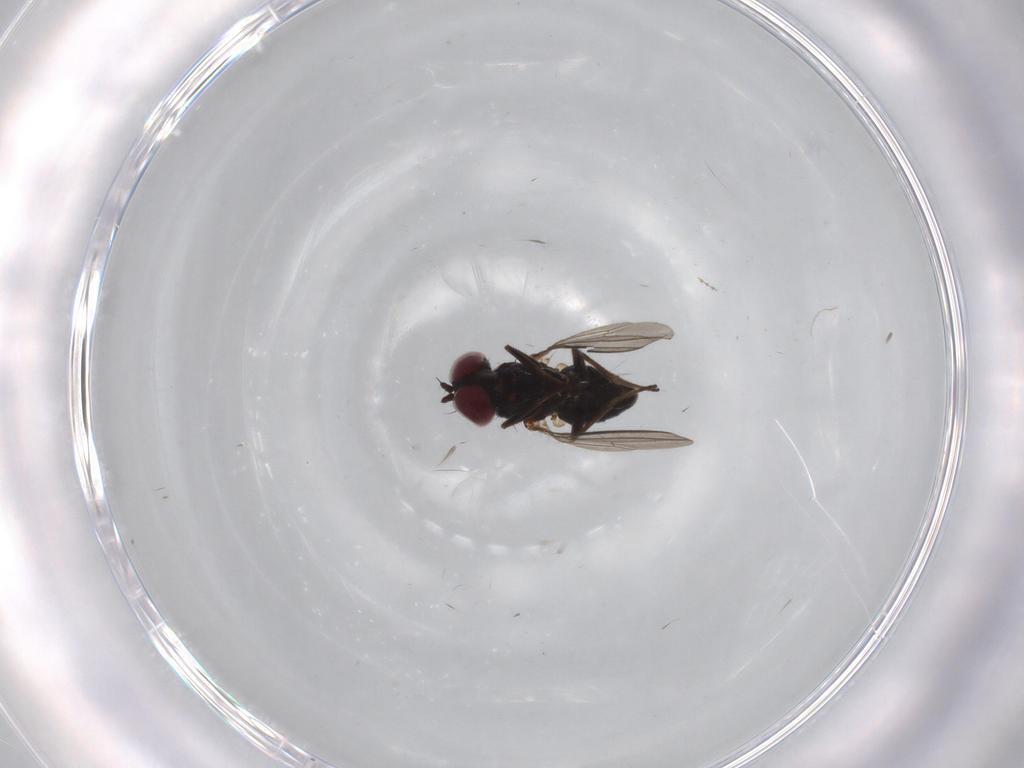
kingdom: Animalia
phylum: Arthropoda
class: Insecta
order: Diptera
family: Cecidomyiidae
